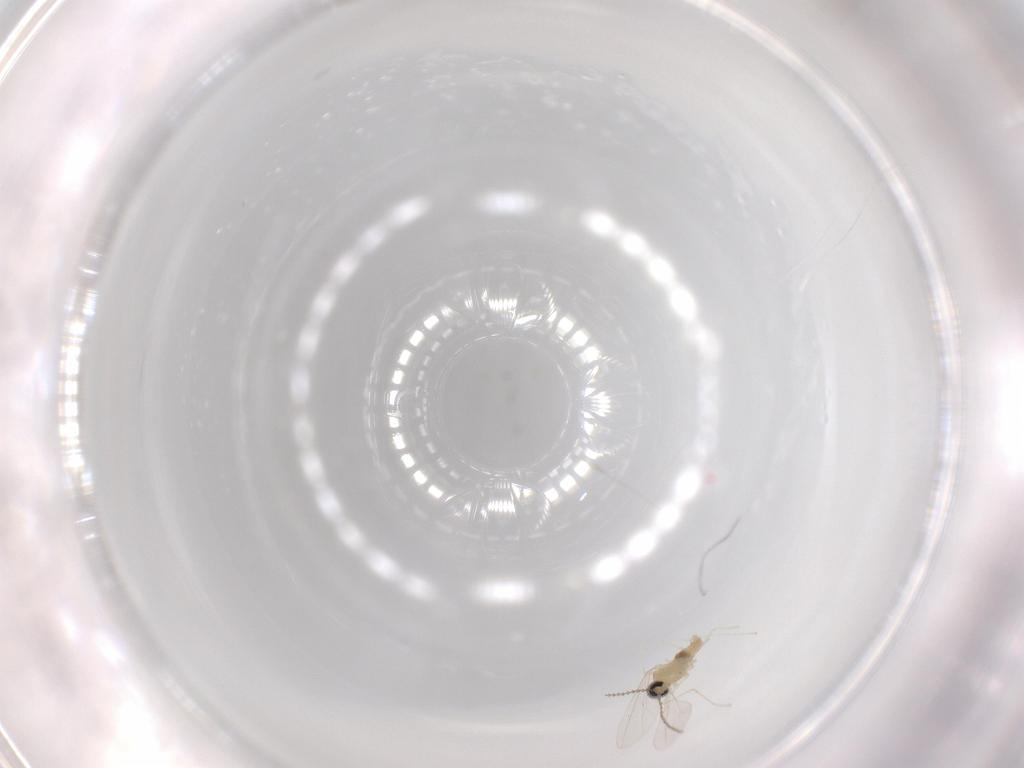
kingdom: Animalia
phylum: Arthropoda
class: Insecta
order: Diptera
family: Cecidomyiidae
